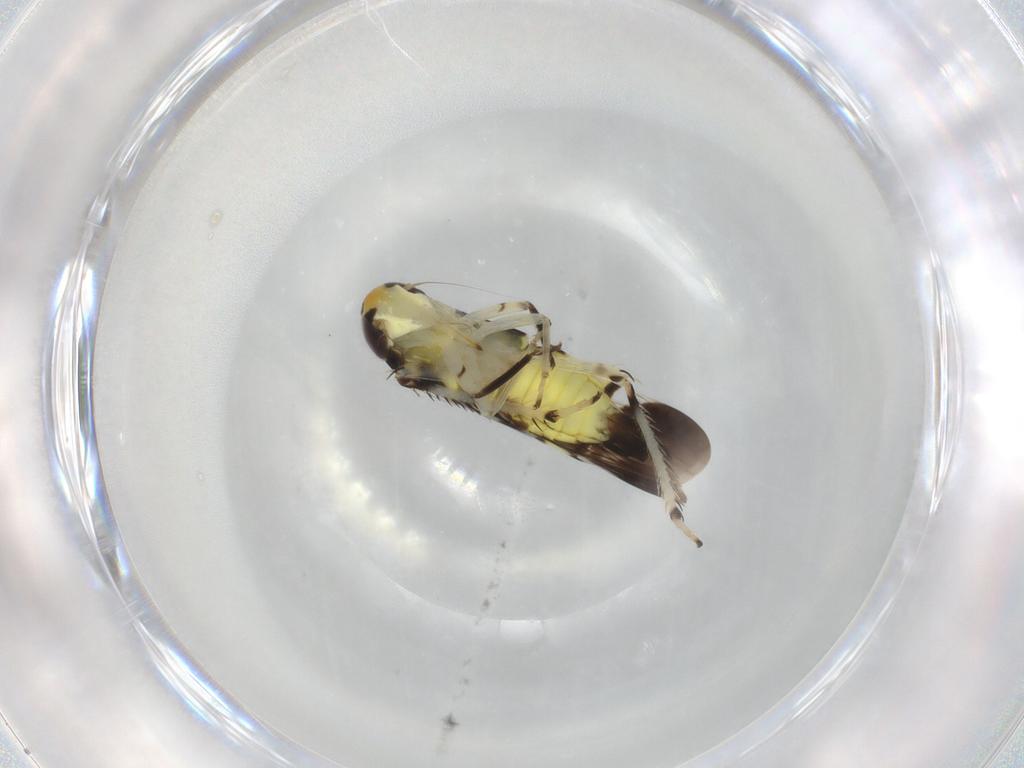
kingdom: Animalia
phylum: Arthropoda
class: Insecta
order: Hemiptera
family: Cicadellidae
